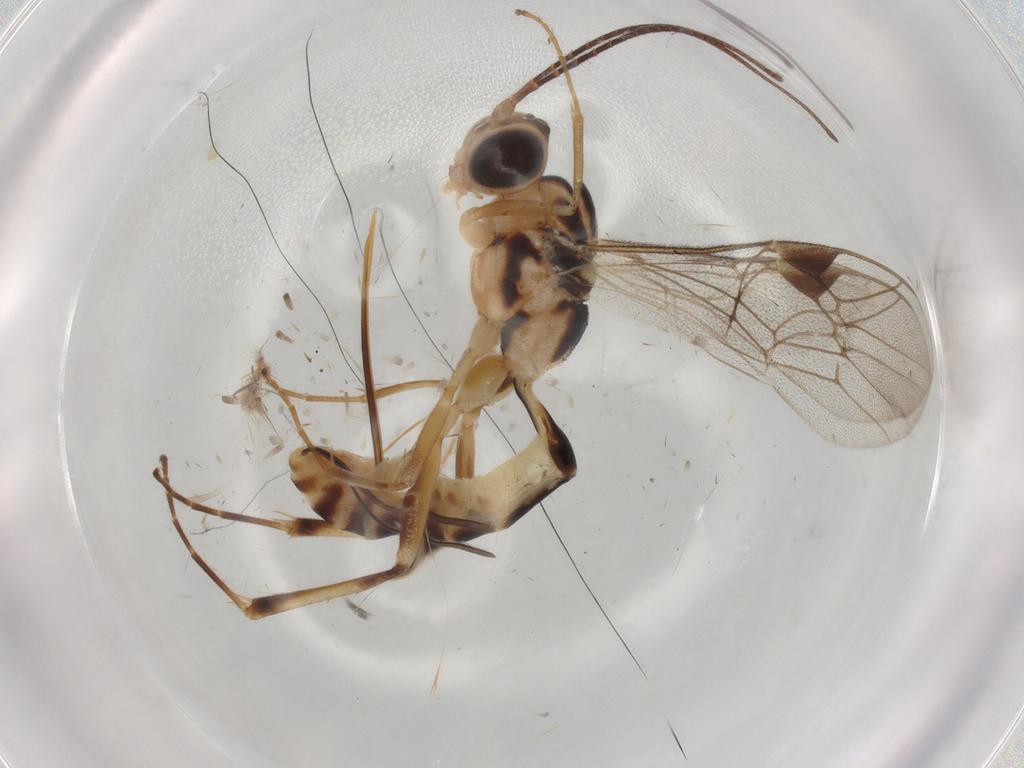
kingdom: Animalia
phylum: Arthropoda
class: Insecta
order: Hymenoptera
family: Ichneumonidae
